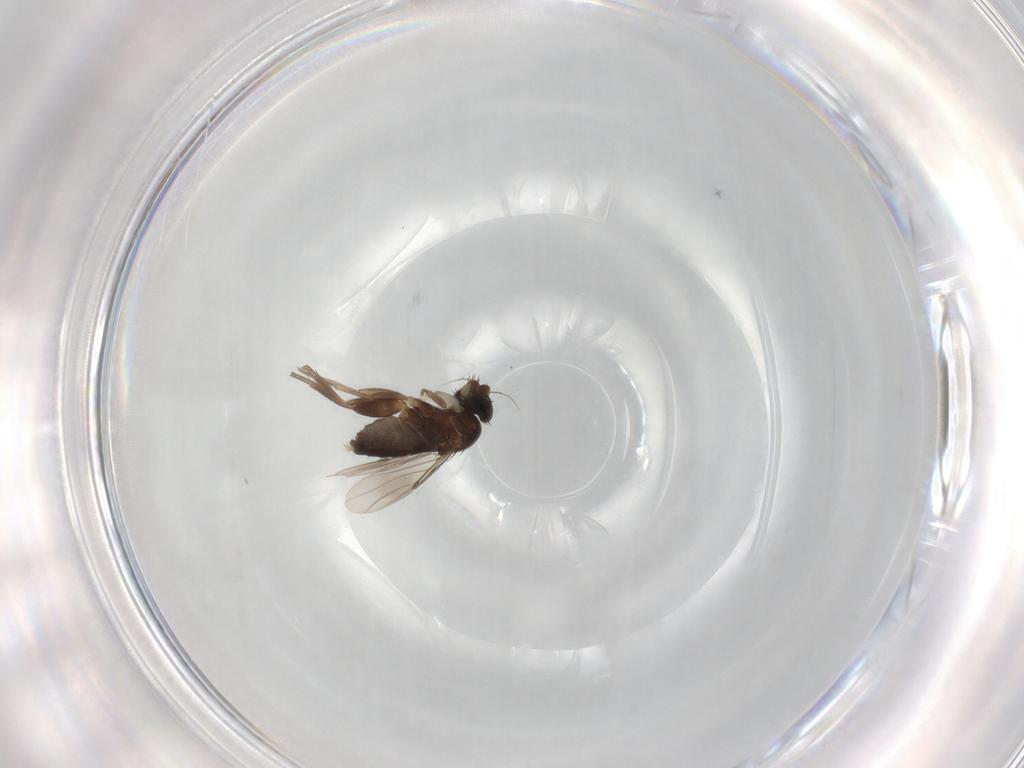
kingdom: Animalia
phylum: Arthropoda
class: Insecta
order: Diptera
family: Phoridae
